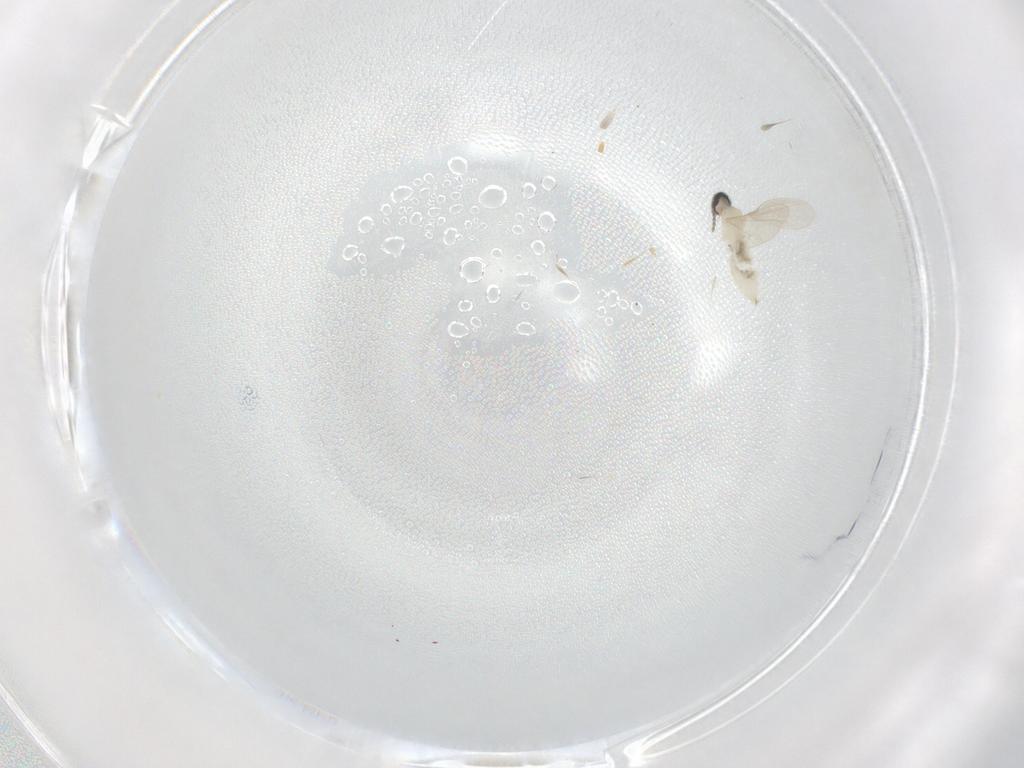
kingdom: Animalia
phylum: Arthropoda
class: Insecta
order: Diptera
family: Cecidomyiidae
